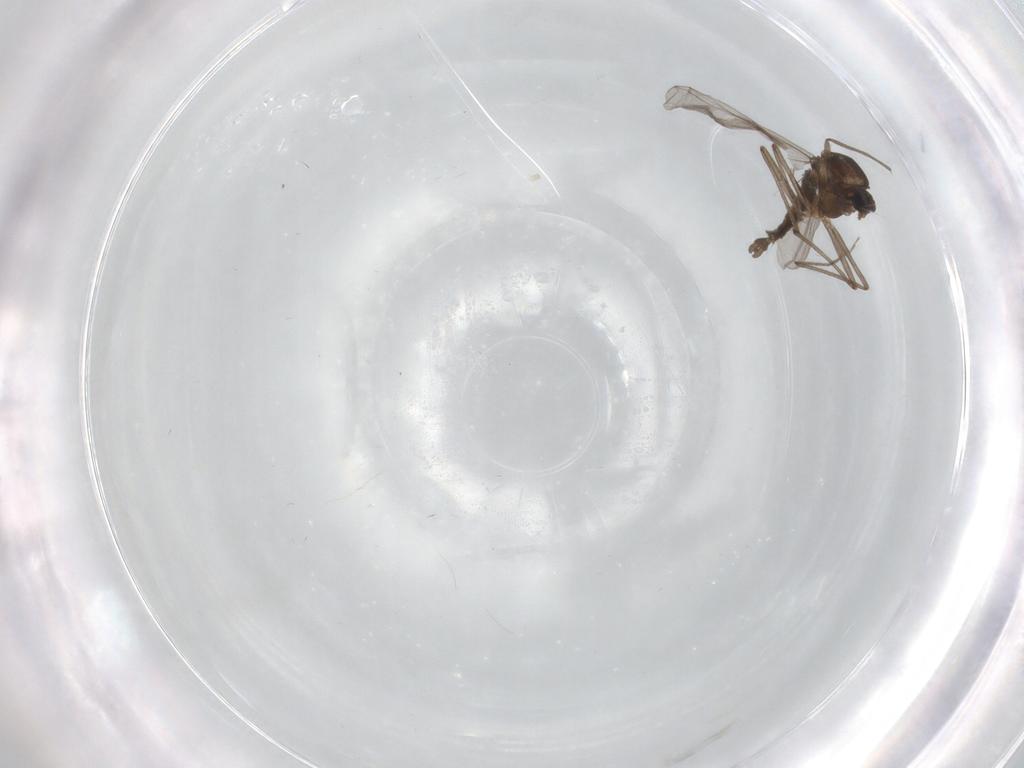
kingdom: Animalia
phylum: Arthropoda
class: Insecta
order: Diptera
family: Chironomidae
